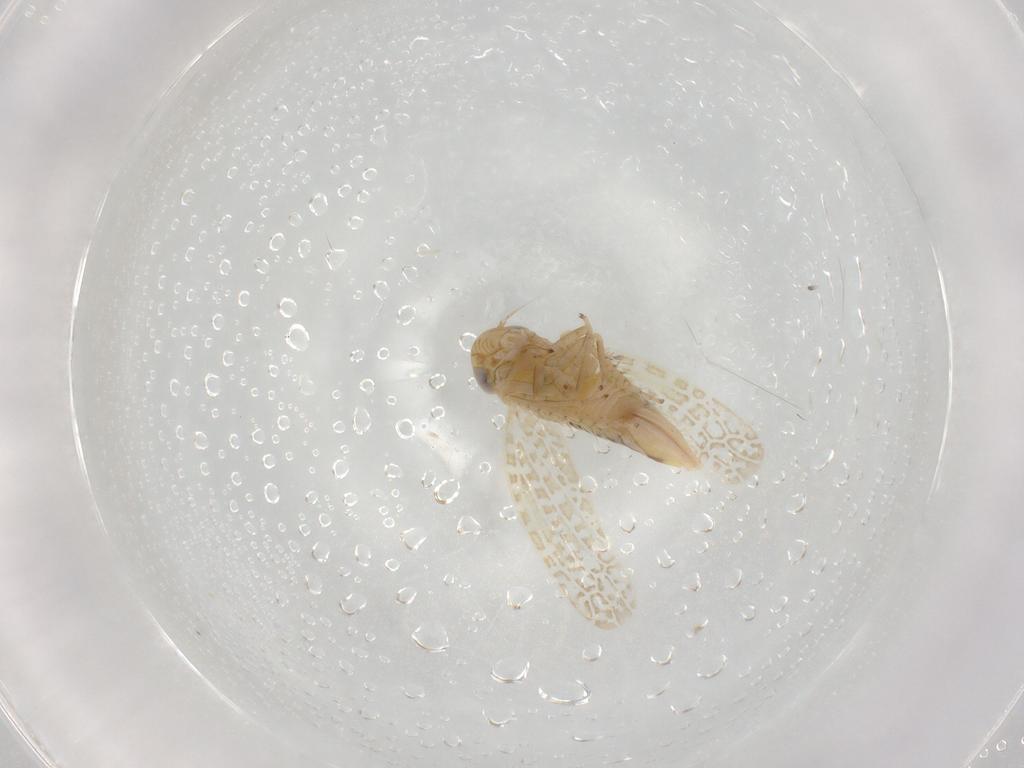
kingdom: Animalia
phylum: Arthropoda
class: Insecta
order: Hemiptera
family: Cicadellidae
